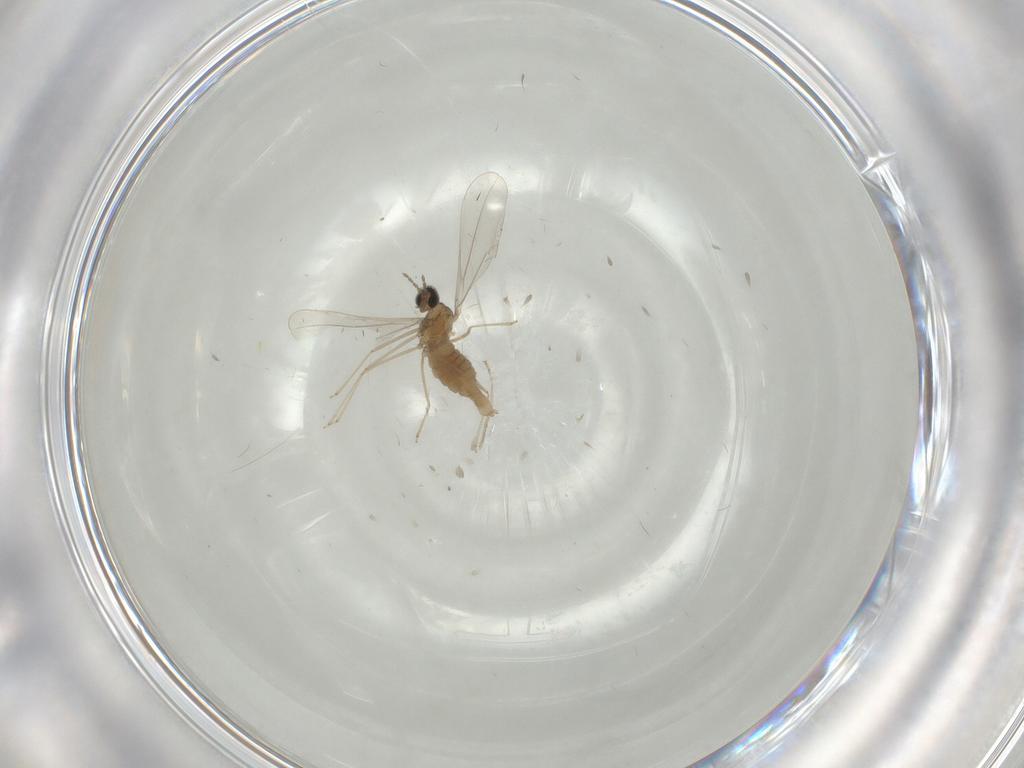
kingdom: Animalia
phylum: Arthropoda
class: Insecta
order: Diptera
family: Cecidomyiidae
